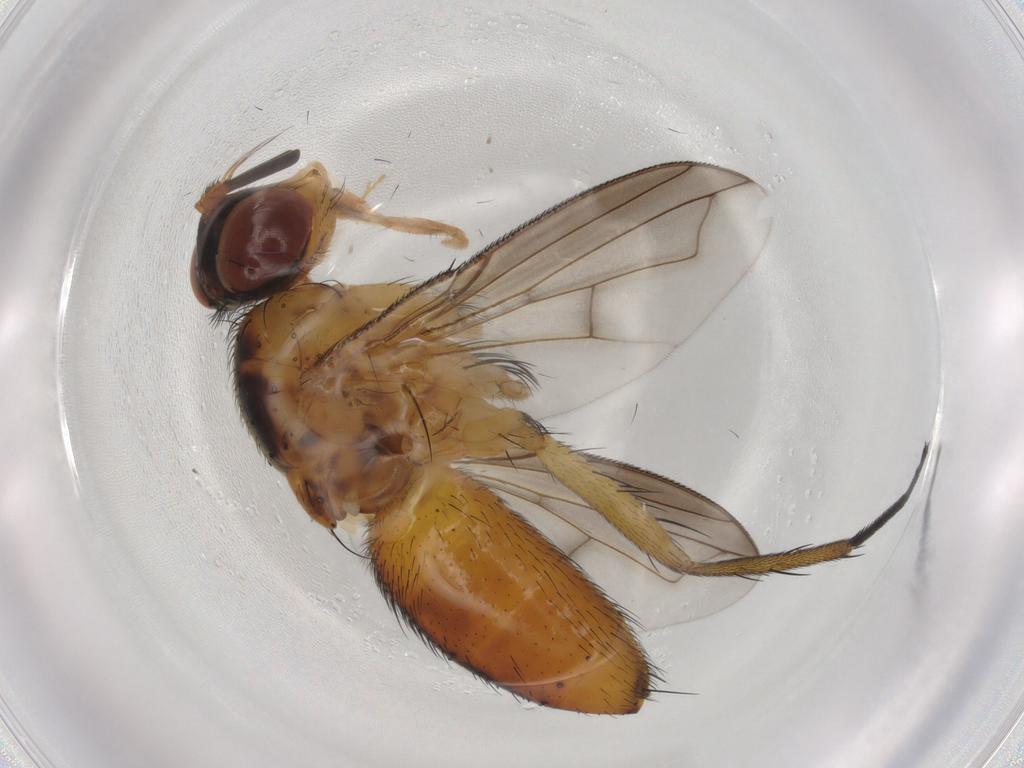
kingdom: Animalia
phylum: Arthropoda
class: Insecta
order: Diptera
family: Tachinidae
